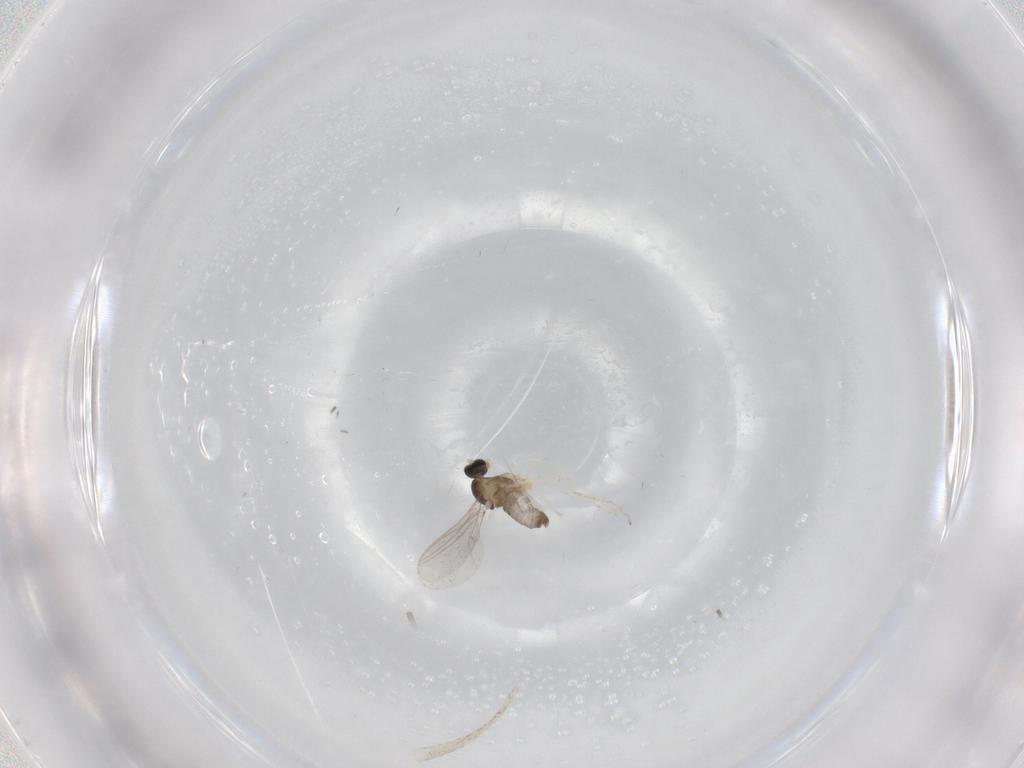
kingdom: Animalia
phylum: Arthropoda
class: Insecta
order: Diptera
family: Cecidomyiidae
